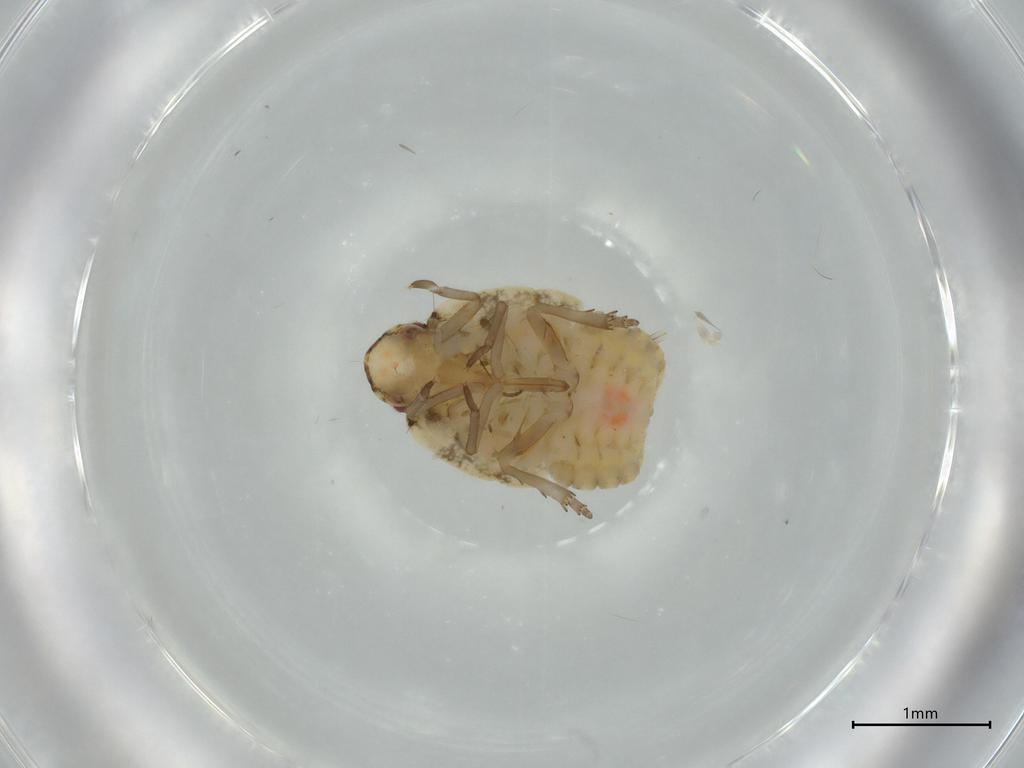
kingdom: Animalia
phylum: Arthropoda
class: Insecta
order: Hemiptera
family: Flatidae
